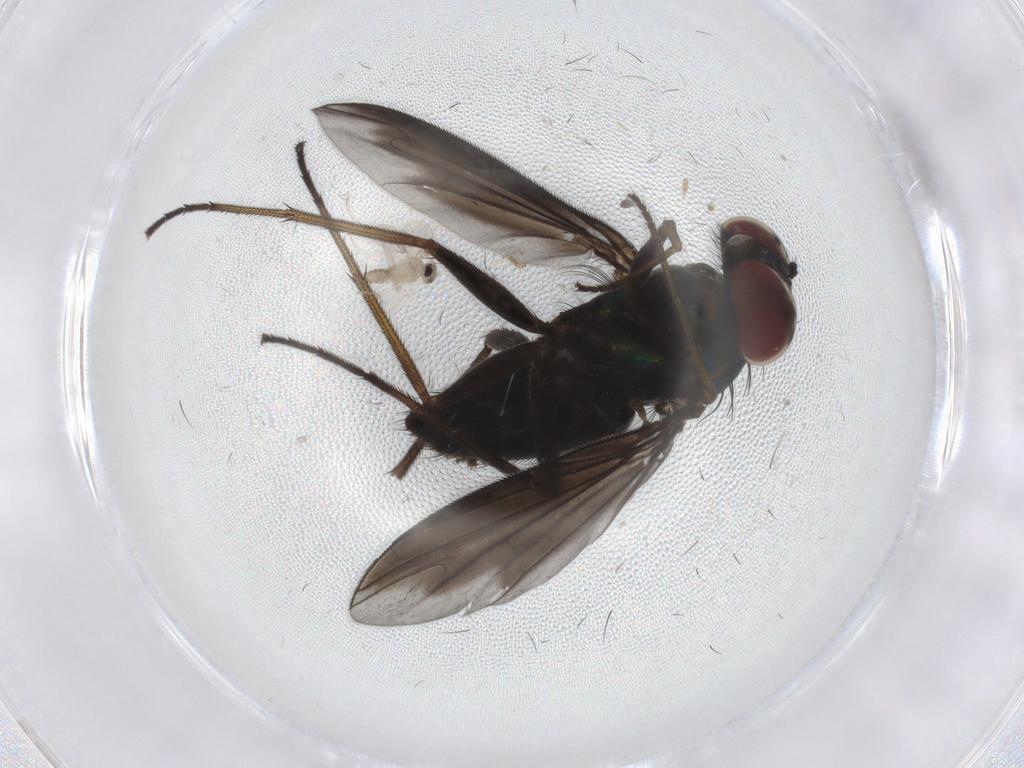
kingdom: Animalia
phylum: Arthropoda
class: Insecta
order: Diptera
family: Dolichopodidae
